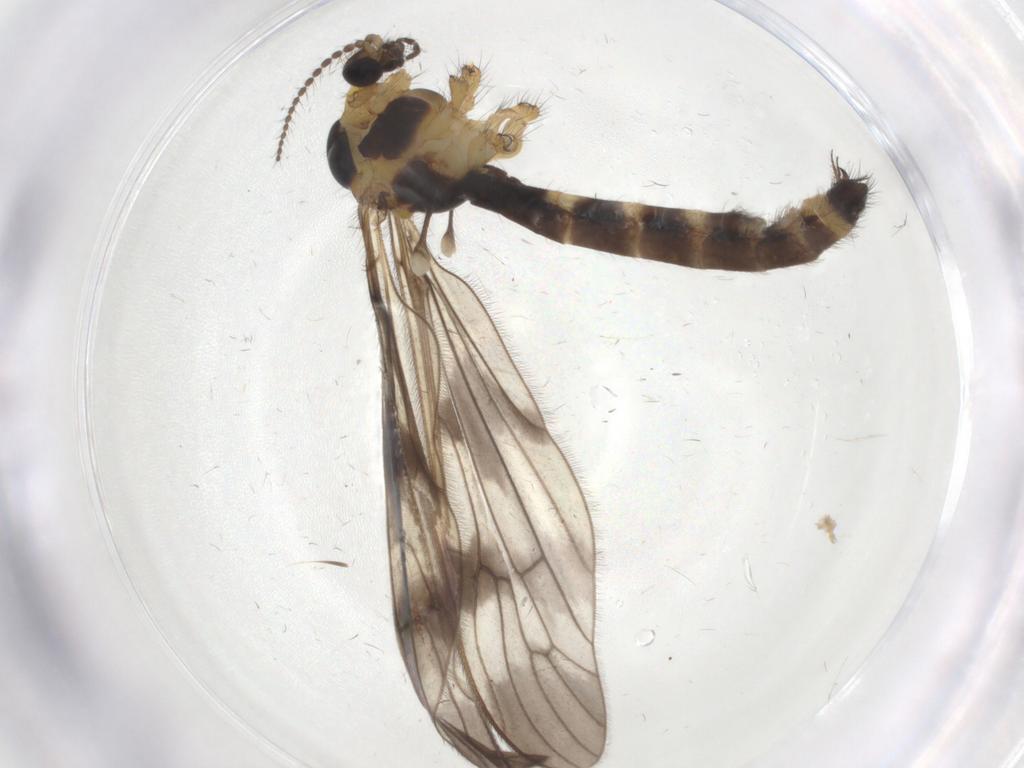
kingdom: Animalia
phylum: Arthropoda
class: Insecta
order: Diptera
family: Limoniidae
